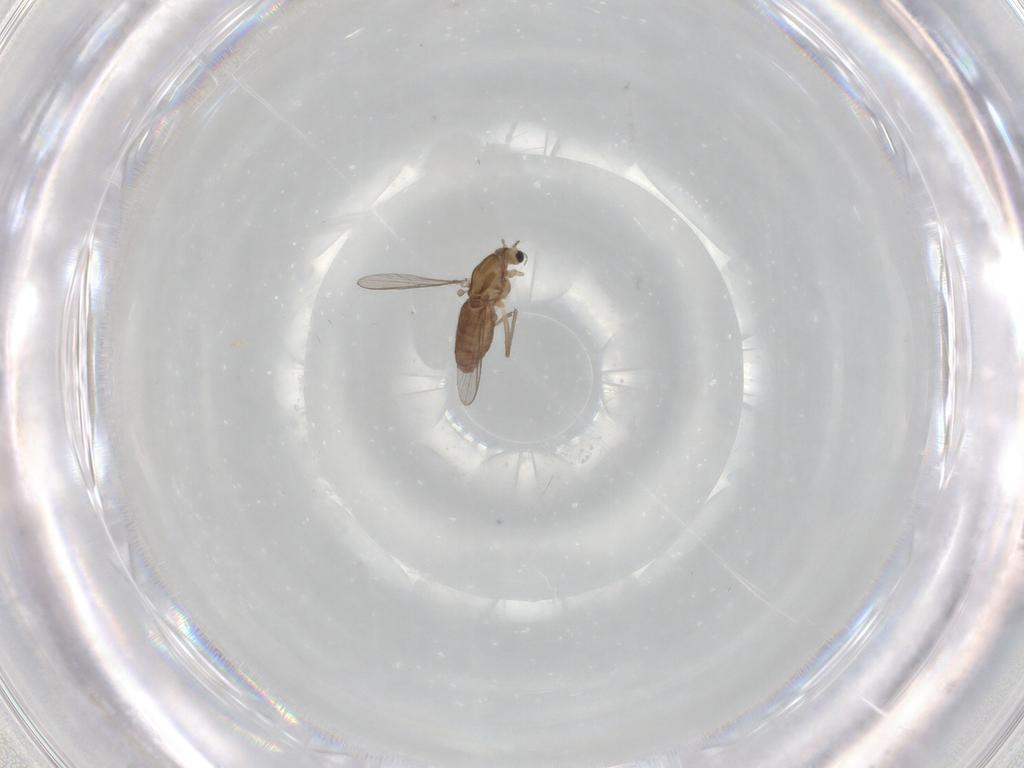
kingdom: Animalia
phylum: Arthropoda
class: Insecta
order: Diptera
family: Chironomidae
